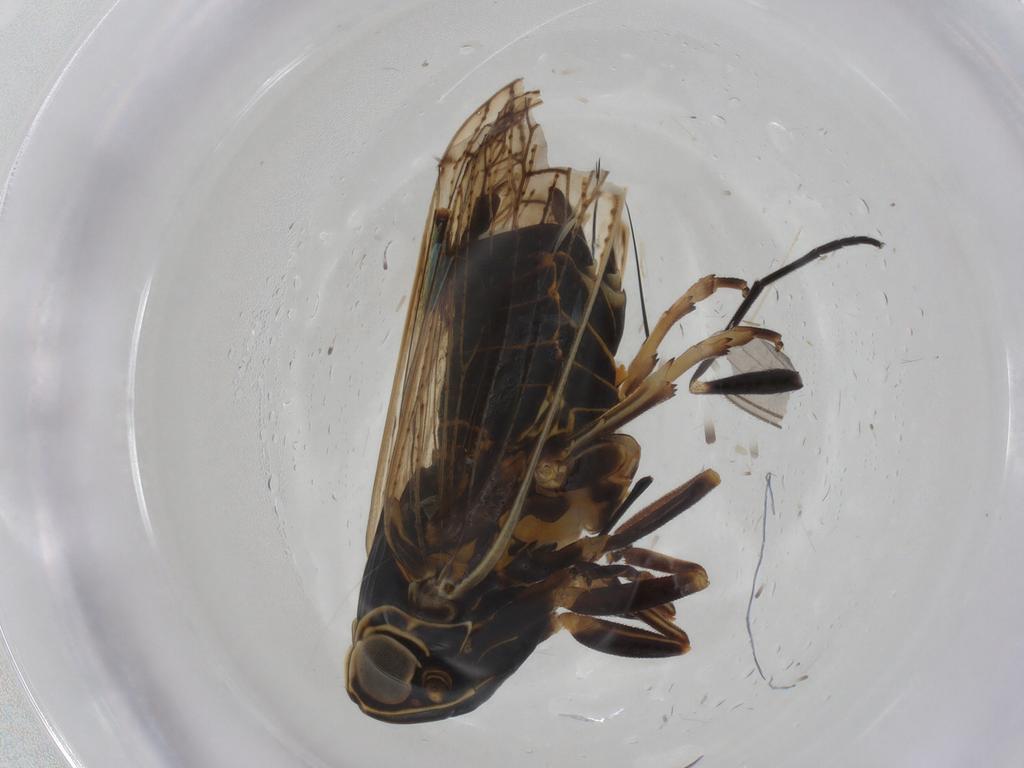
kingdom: Animalia
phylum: Arthropoda
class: Insecta
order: Hemiptera
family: Cixiidae
